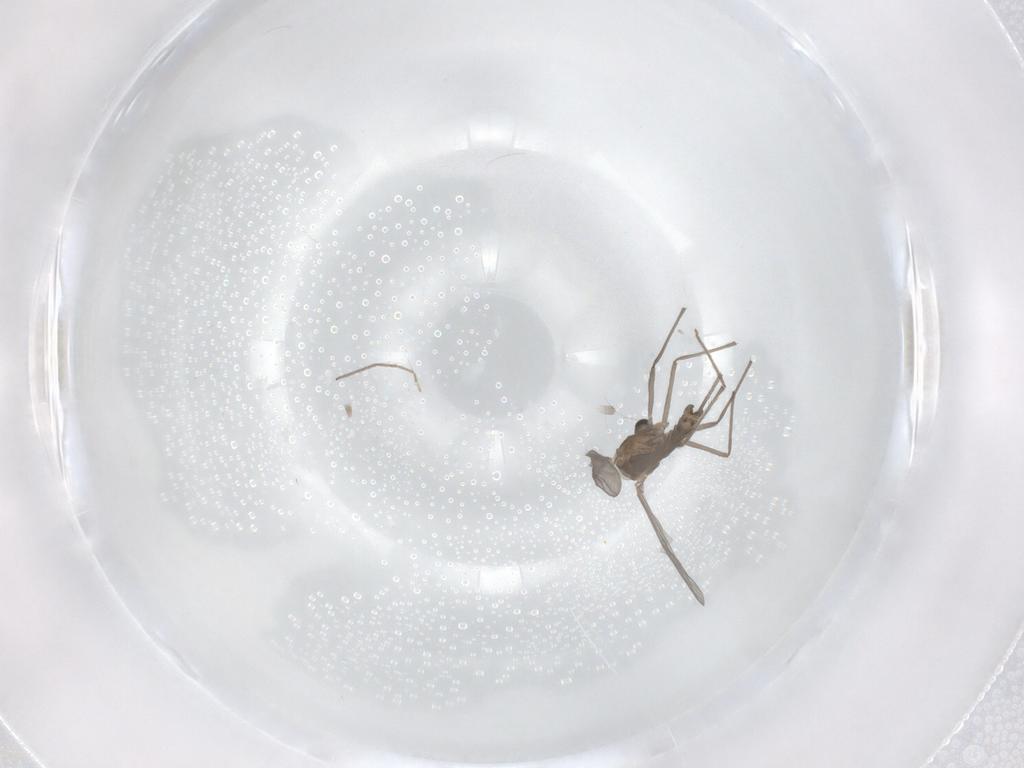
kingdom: Animalia
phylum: Arthropoda
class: Insecta
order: Diptera
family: Chironomidae
